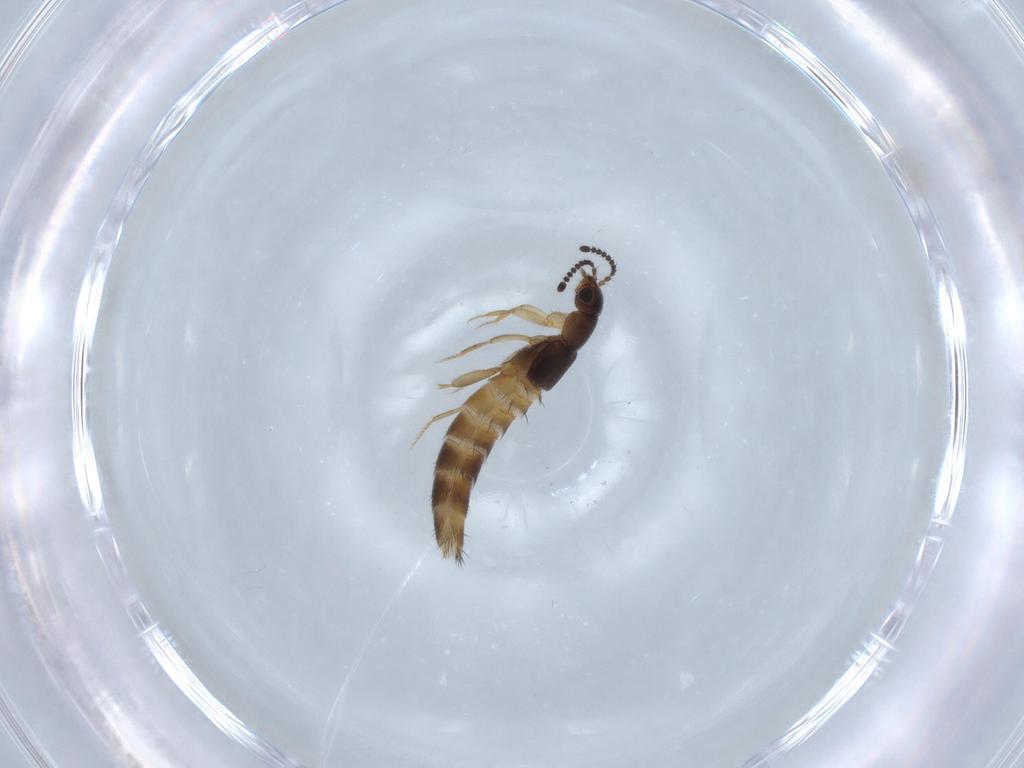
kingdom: Animalia
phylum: Arthropoda
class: Insecta
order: Coleoptera
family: Staphylinidae
